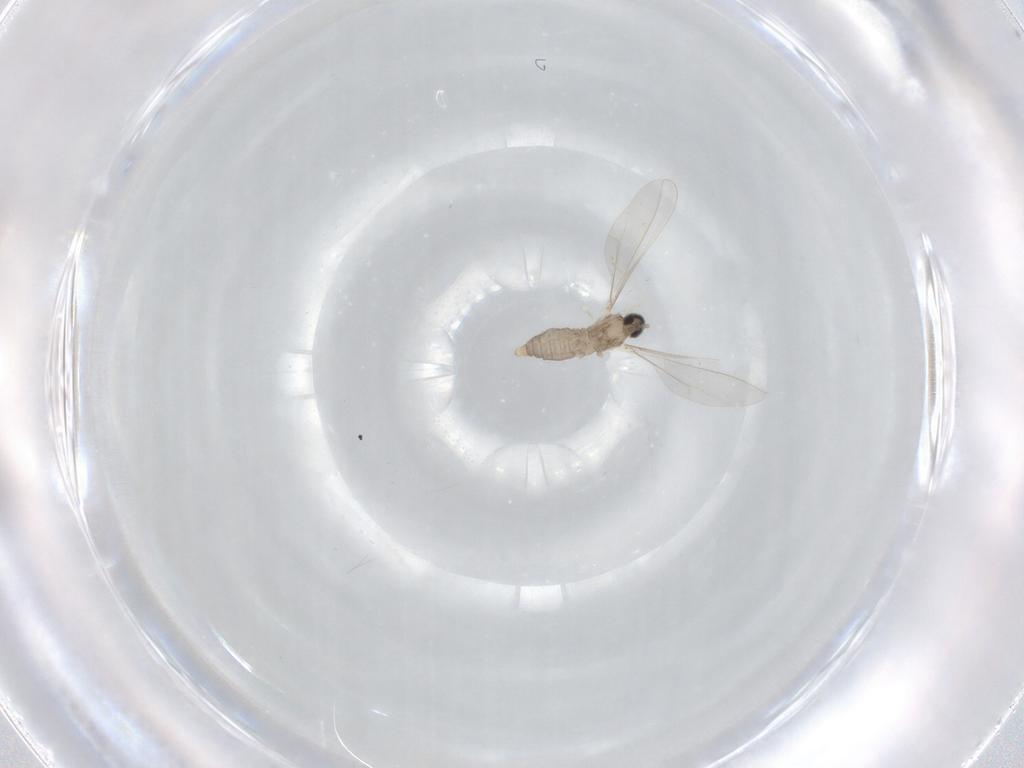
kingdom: Animalia
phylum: Arthropoda
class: Insecta
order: Diptera
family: Cecidomyiidae
